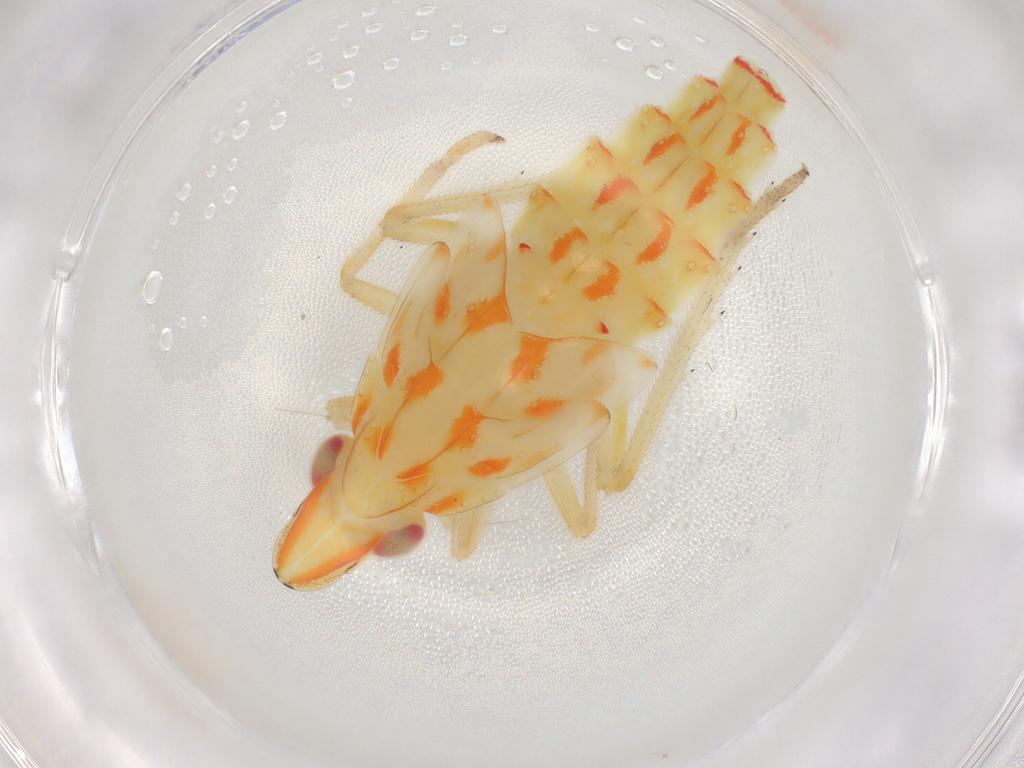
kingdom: Animalia
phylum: Arthropoda
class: Insecta
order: Hemiptera
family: Tropiduchidae
